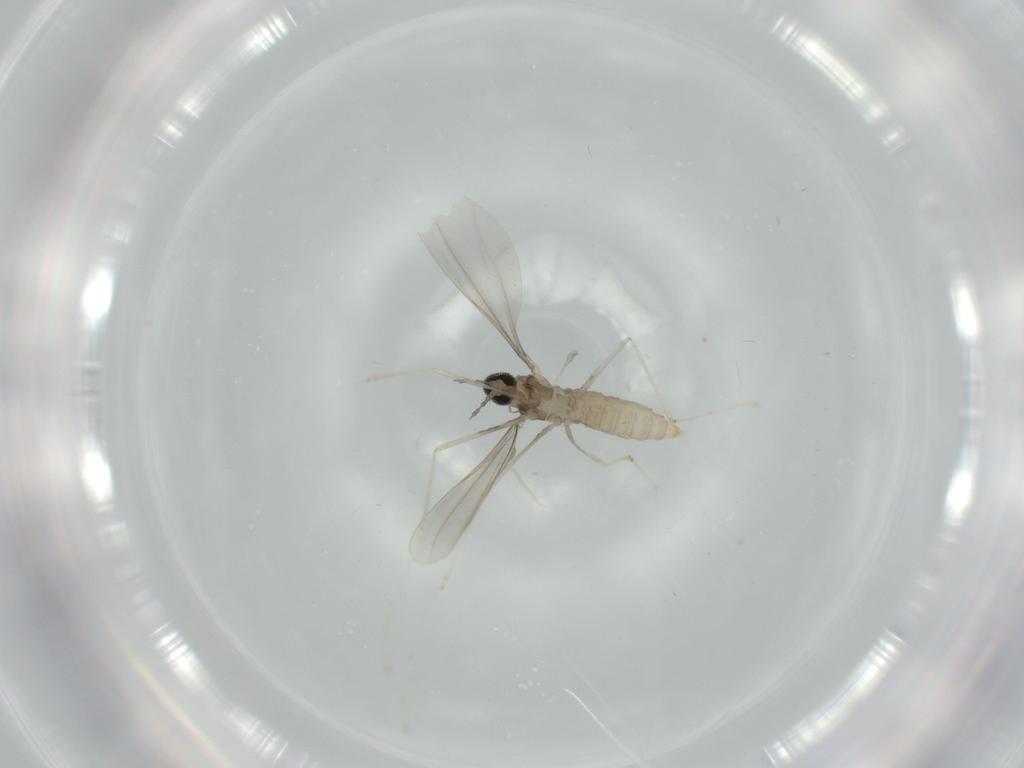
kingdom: Animalia
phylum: Arthropoda
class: Insecta
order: Diptera
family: Cecidomyiidae
